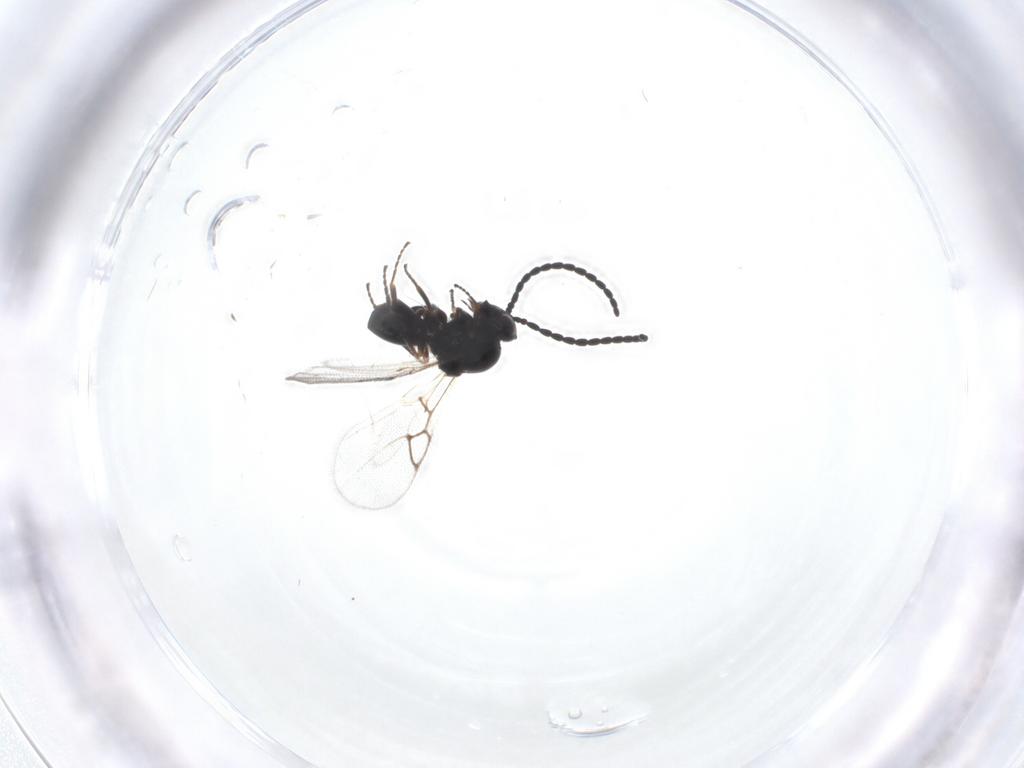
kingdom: Animalia
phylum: Arthropoda
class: Insecta
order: Hymenoptera
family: Figitidae
